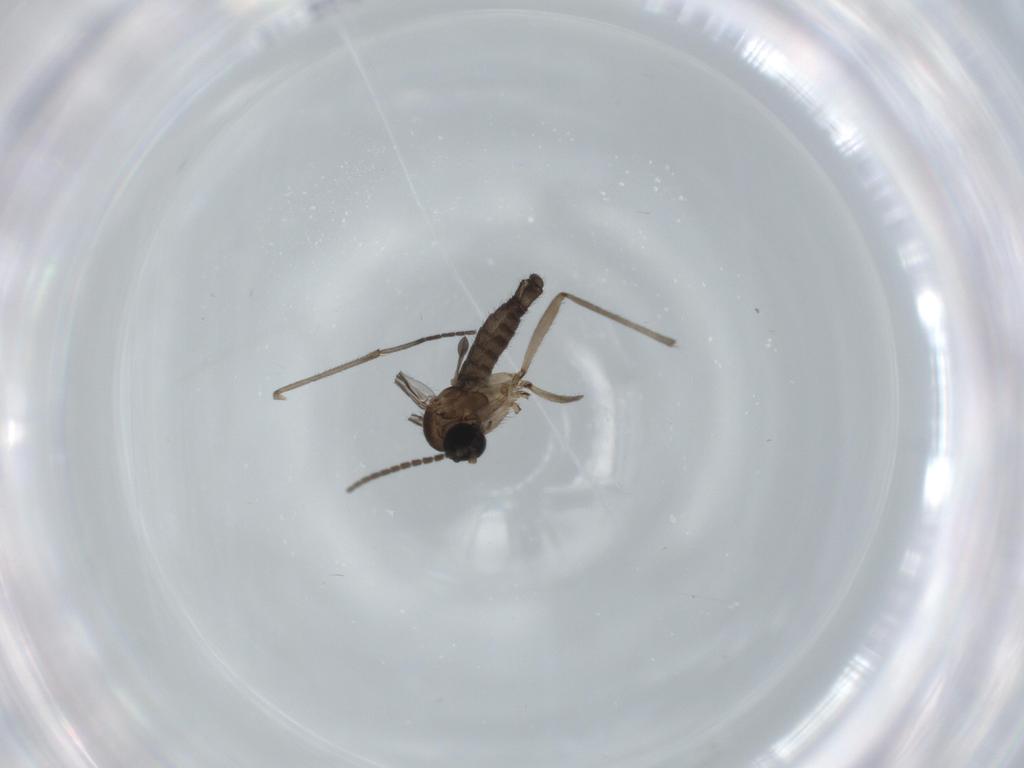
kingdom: Animalia
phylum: Arthropoda
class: Insecta
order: Diptera
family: Sciaridae
